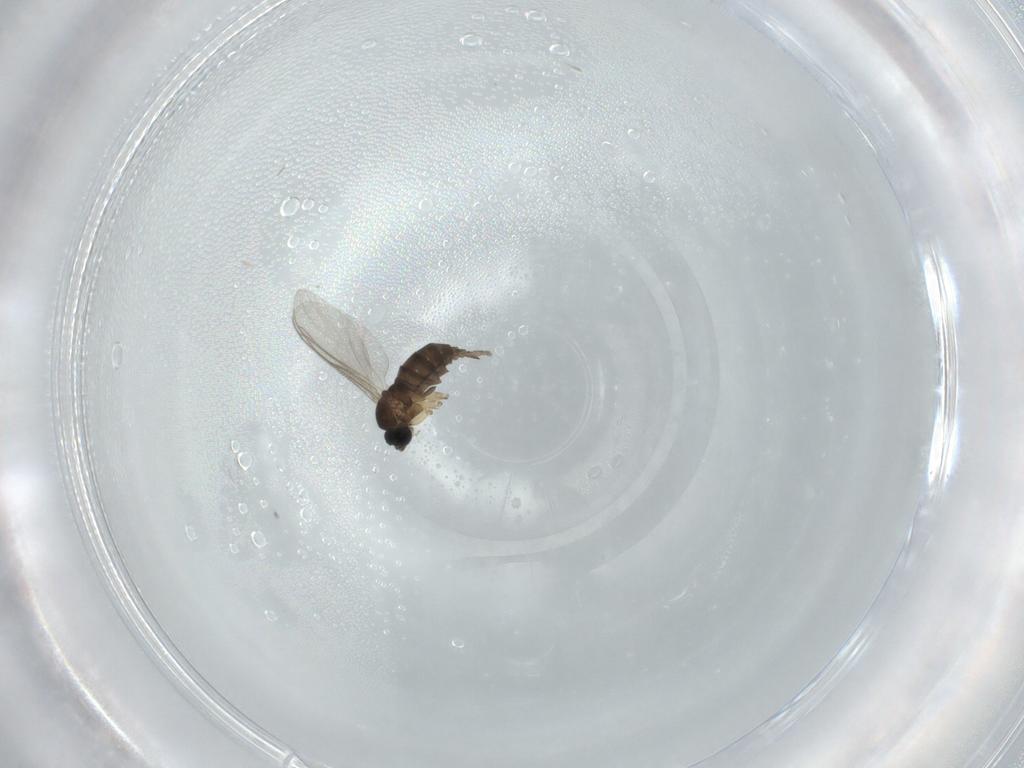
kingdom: Animalia
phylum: Arthropoda
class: Insecta
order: Diptera
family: Sciaridae
